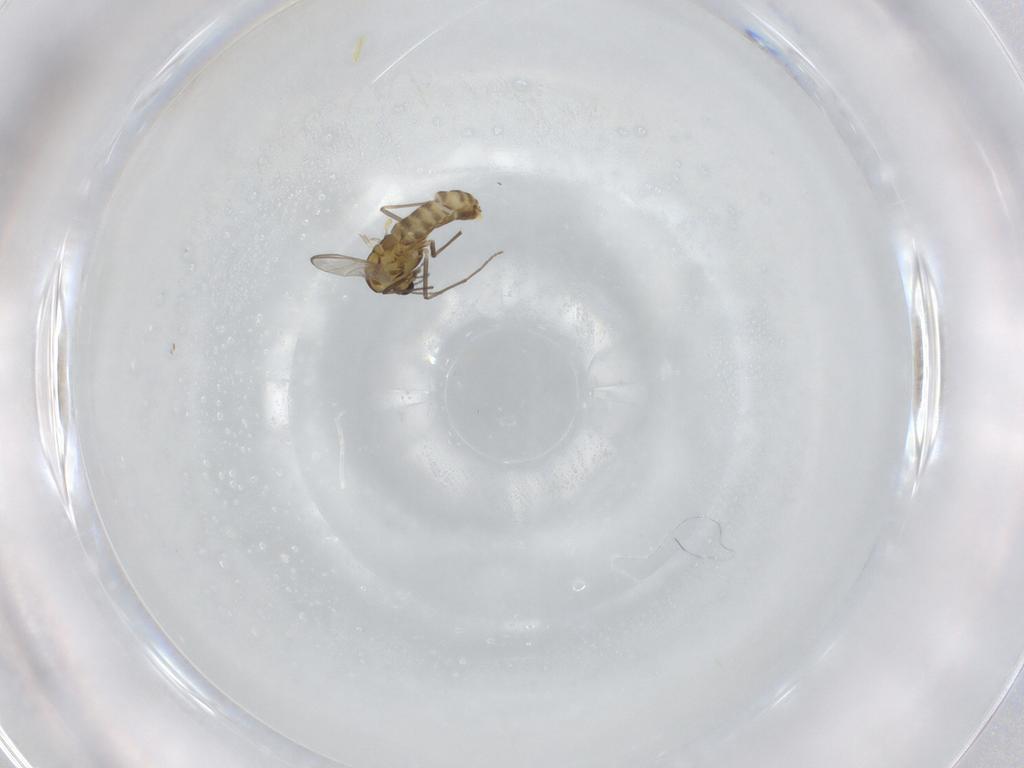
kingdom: Animalia
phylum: Arthropoda
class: Insecta
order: Diptera
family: Chironomidae
